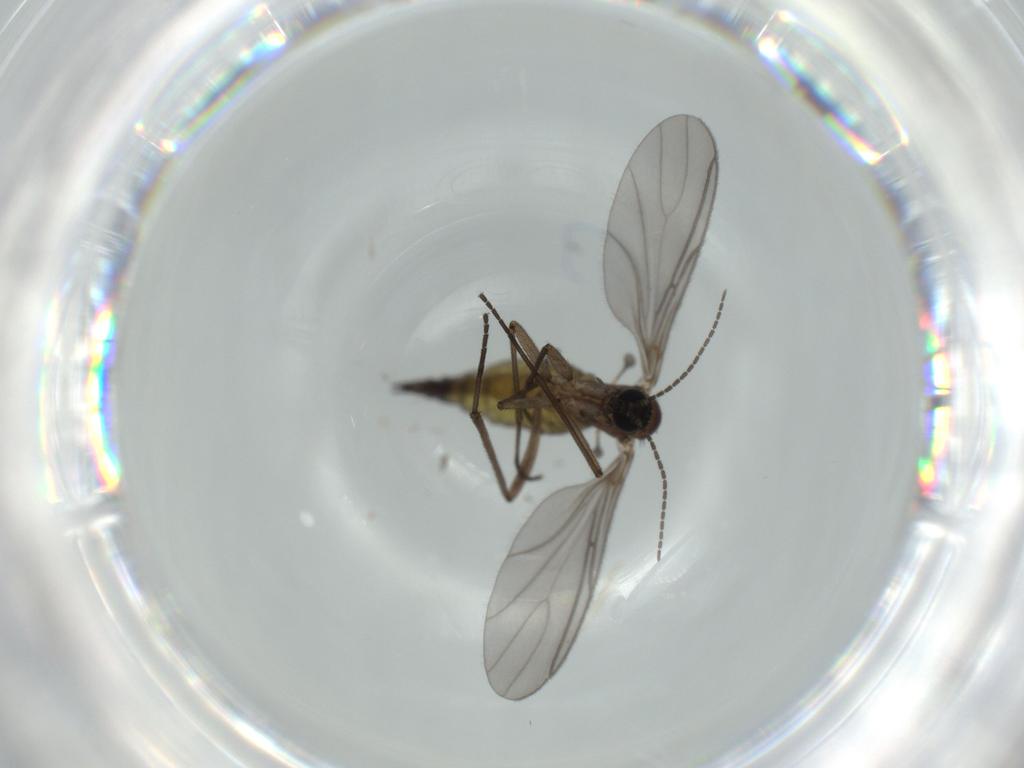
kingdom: Animalia
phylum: Arthropoda
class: Insecta
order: Diptera
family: Sciaridae
